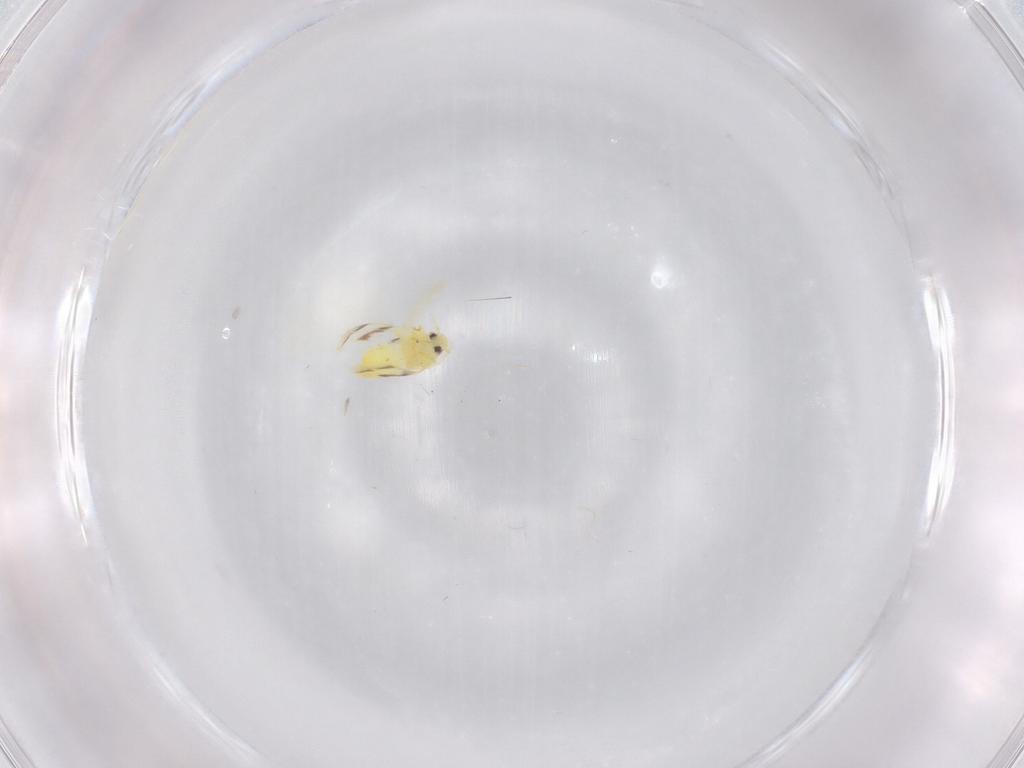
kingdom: Animalia
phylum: Arthropoda
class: Insecta
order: Hemiptera
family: Aleyrodidae
